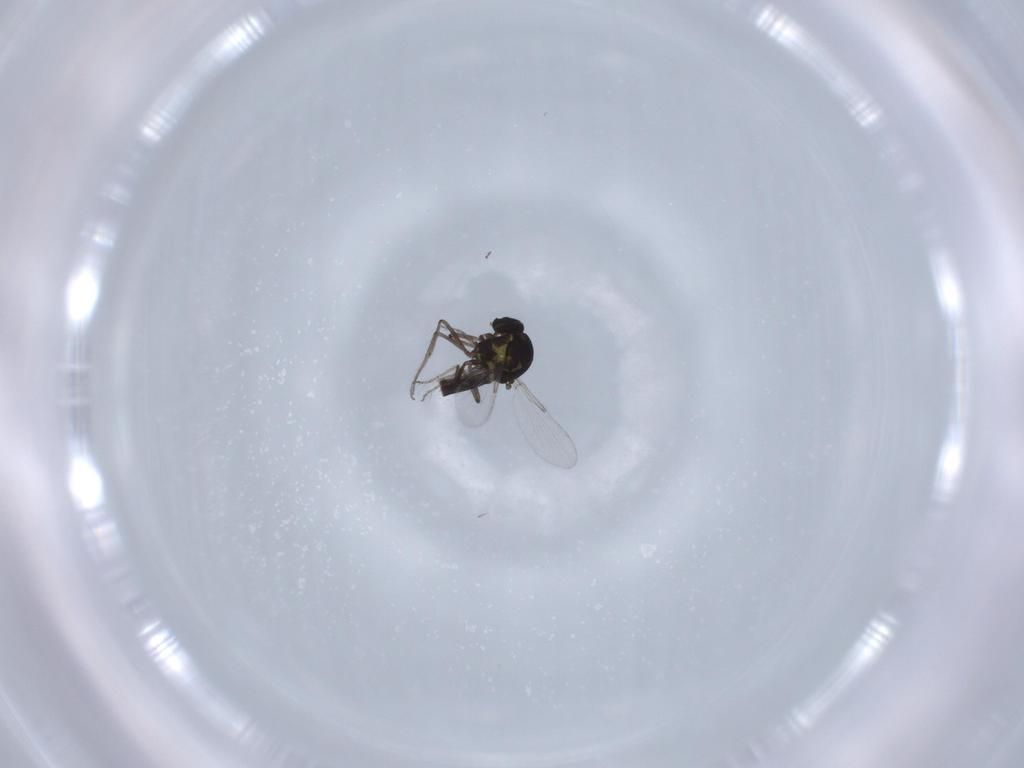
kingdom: Animalia
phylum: Arthropoda
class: Insecta
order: Diptera
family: Ceratopogonidae
